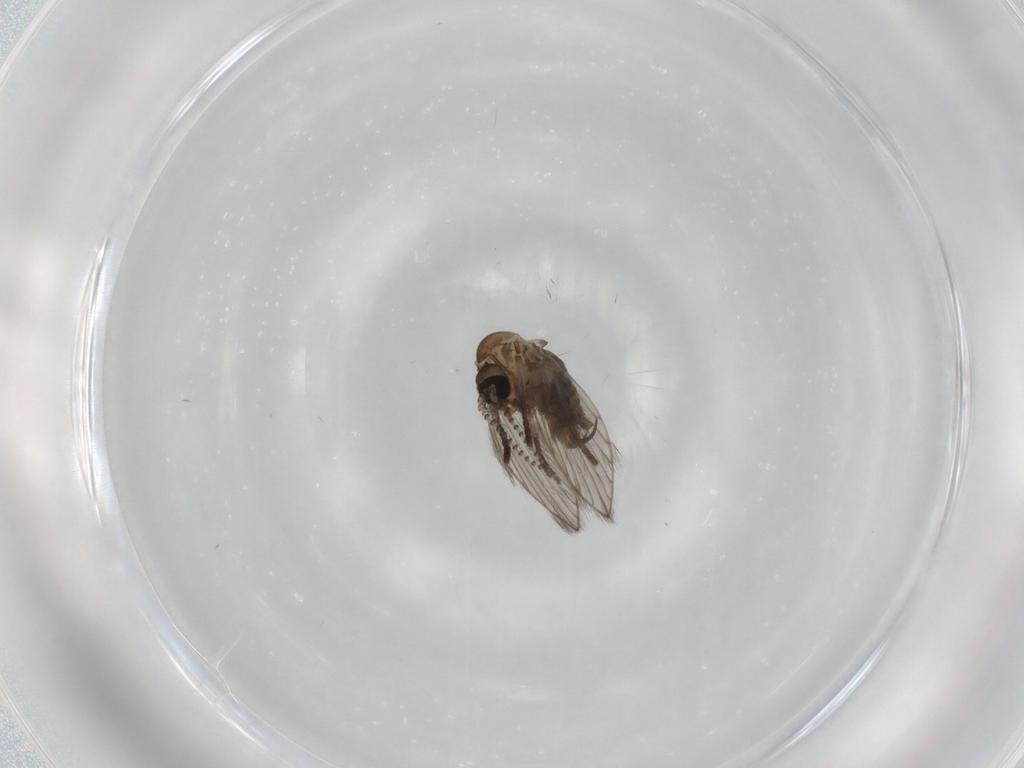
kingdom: Animalia
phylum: Arthropoda
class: Insecta
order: Diptera
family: Psychodidae
